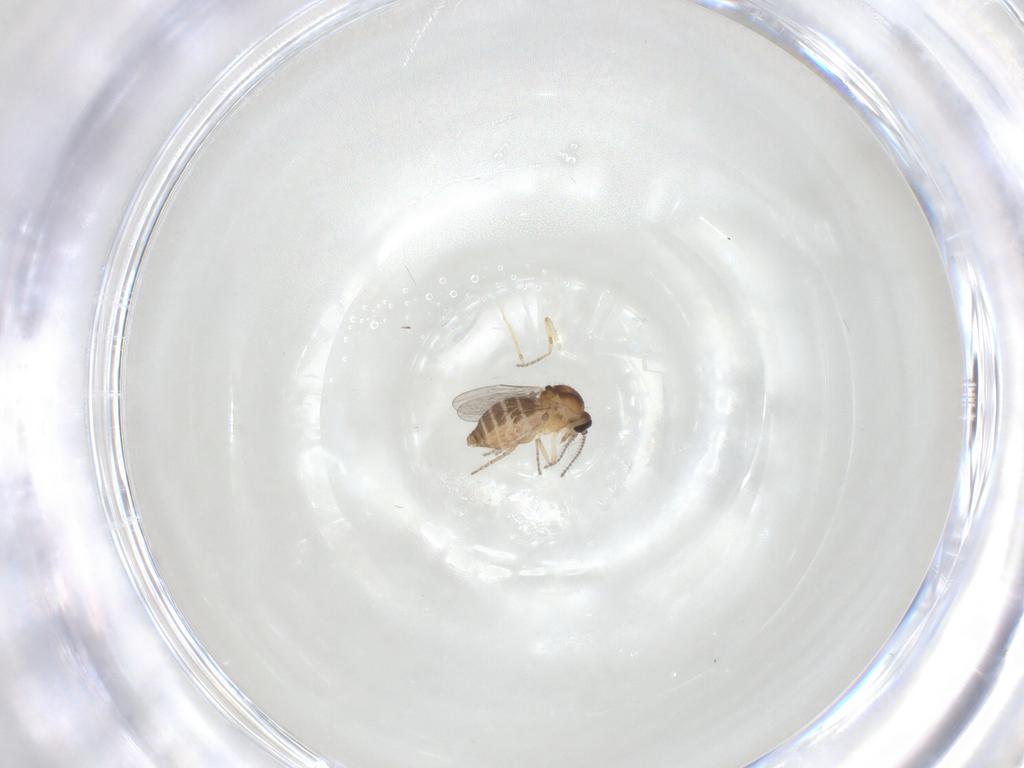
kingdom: Animalia
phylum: Arthropoda
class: Insecta
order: Diptera
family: Ceratopogonidae
